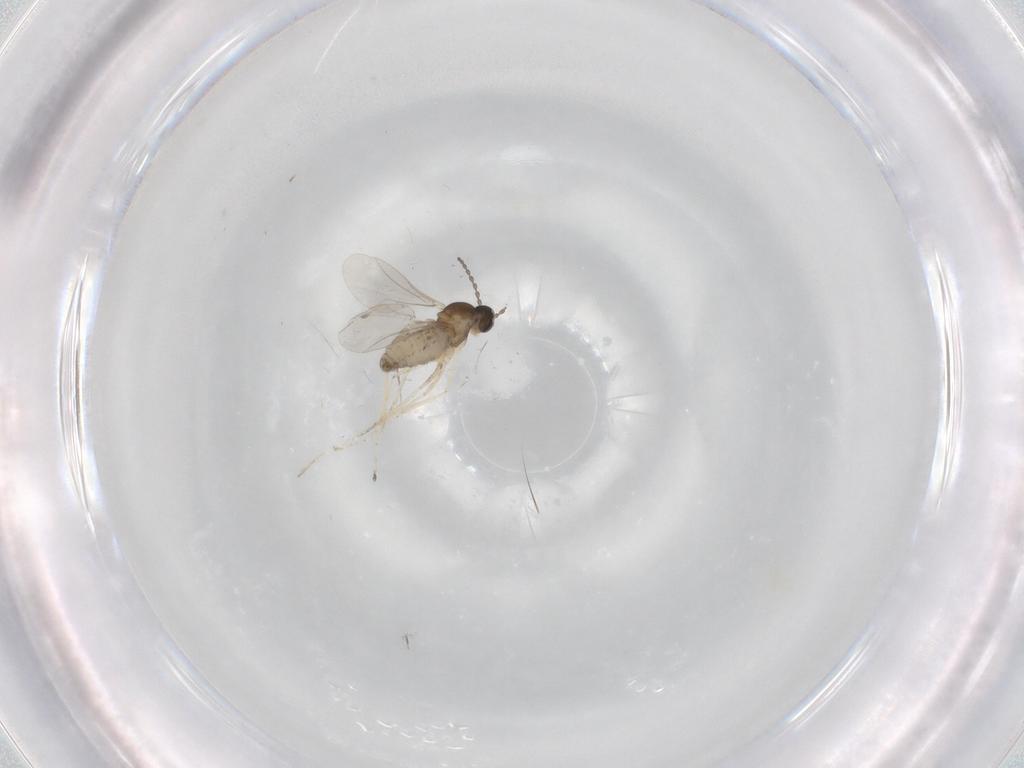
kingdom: Animalia
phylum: Arthropoda
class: Insecta
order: Diptera
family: Cecidomyiidae
